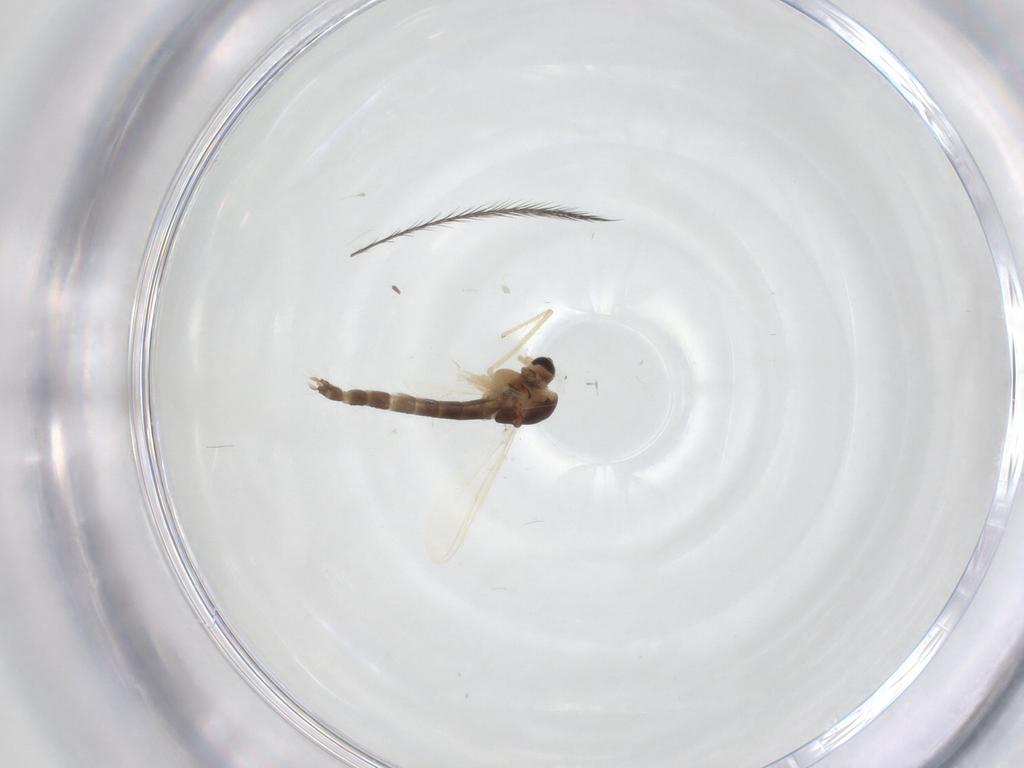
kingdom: Animalia
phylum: Arthropoda
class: Insecta
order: Diptera
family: Chironomidae
